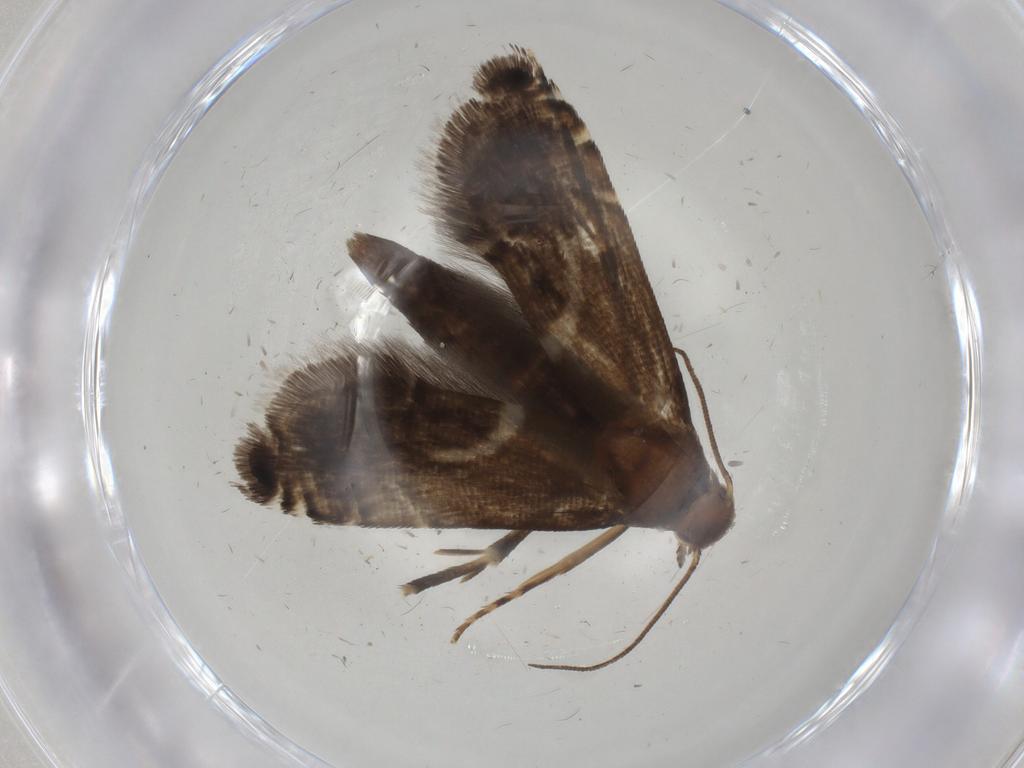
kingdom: Animalia
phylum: Arthropoda
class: Insecta
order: Lepidoptera
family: Glyphipterigidae
